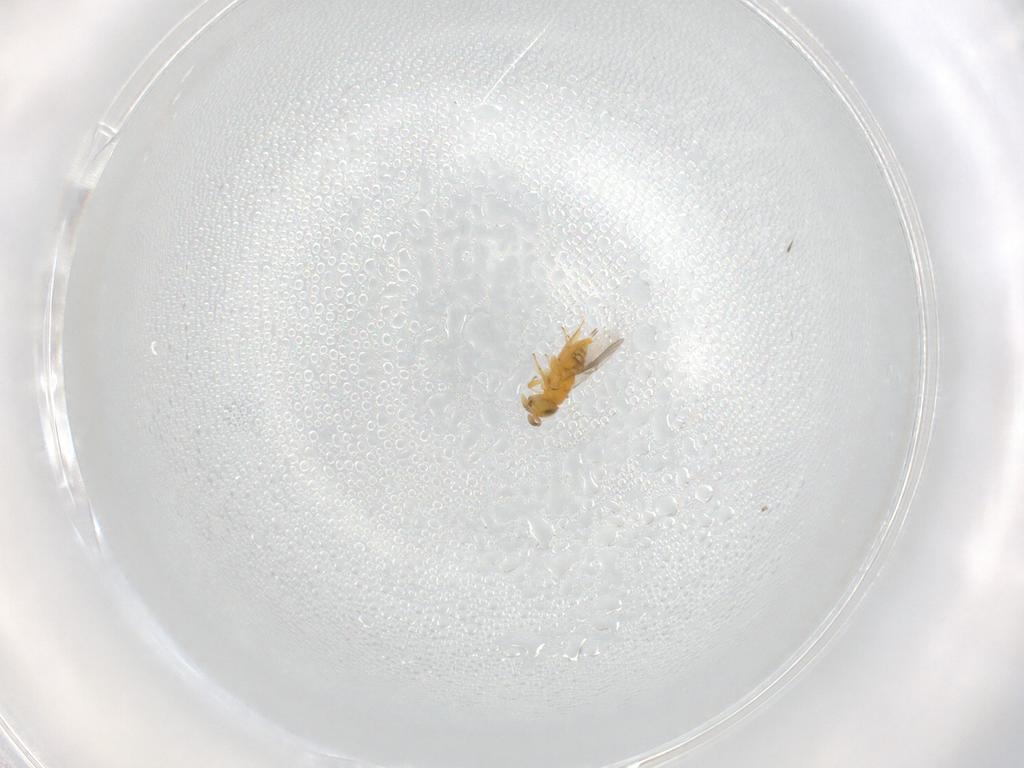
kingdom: Animalia
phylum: Arthropoda
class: Insecta
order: Hymenoptera
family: Encyrtidae
